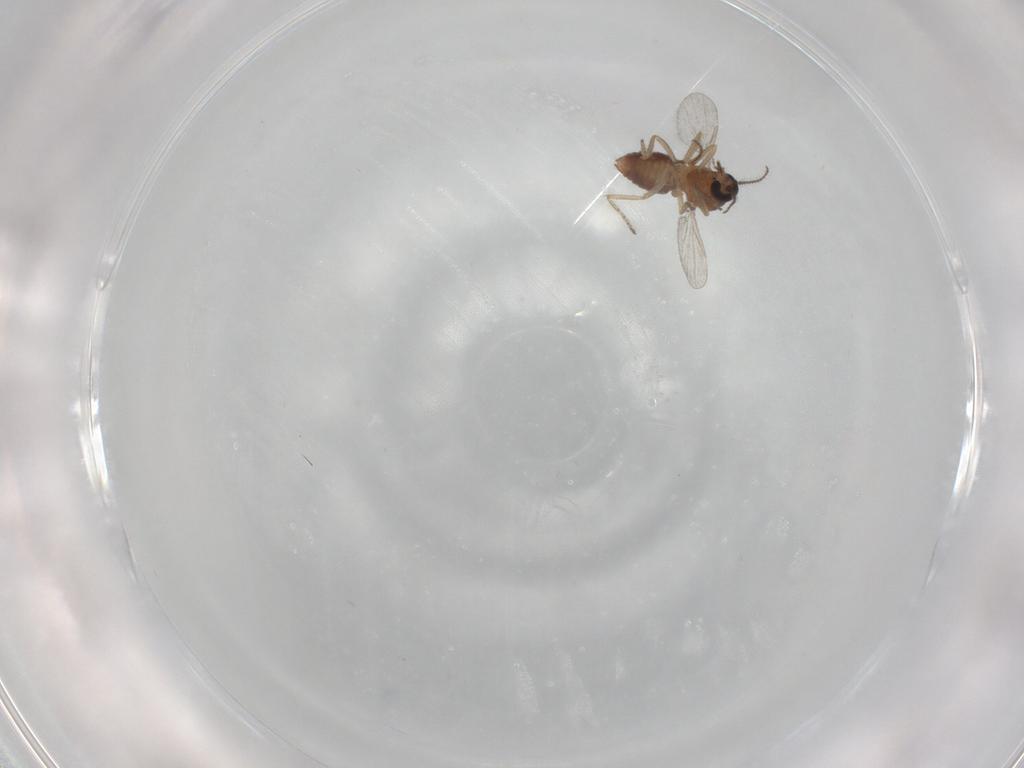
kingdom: Animalia
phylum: Arthropoda
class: Insecta
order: Diptera
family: Ceratopogonidae
